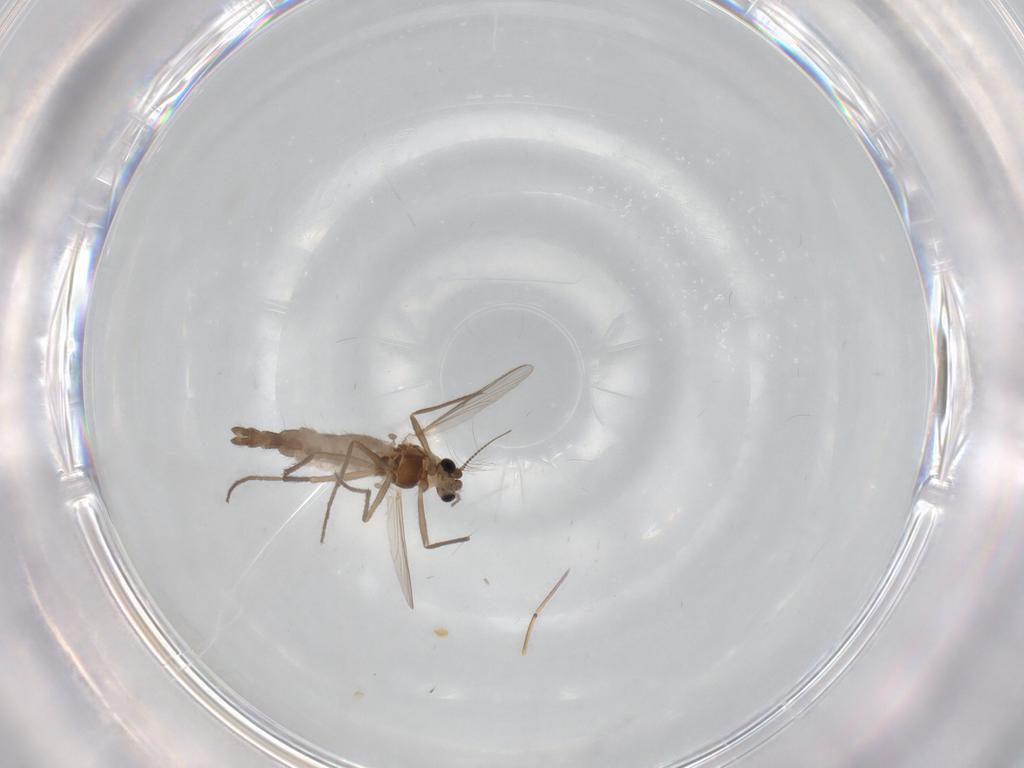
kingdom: Animalia
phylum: Arthropoda
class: Insecta
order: Diptera
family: Chironomidae
